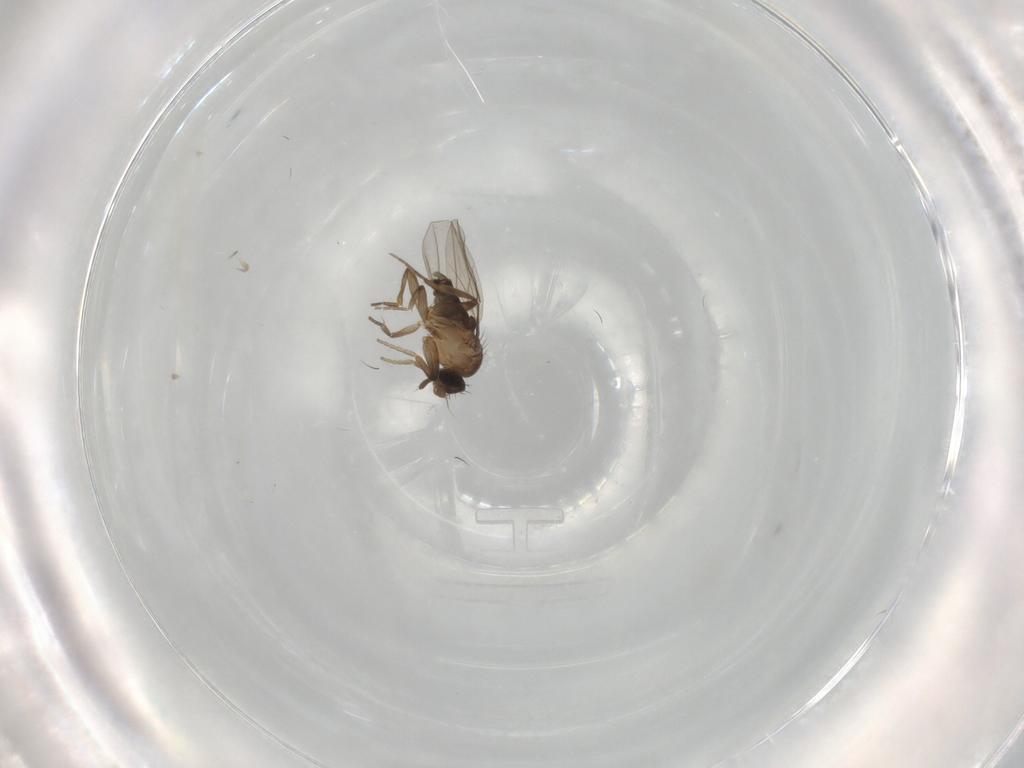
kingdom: Animalia
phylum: Arthropoda
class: Insecta
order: Diptera
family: Phoridae
